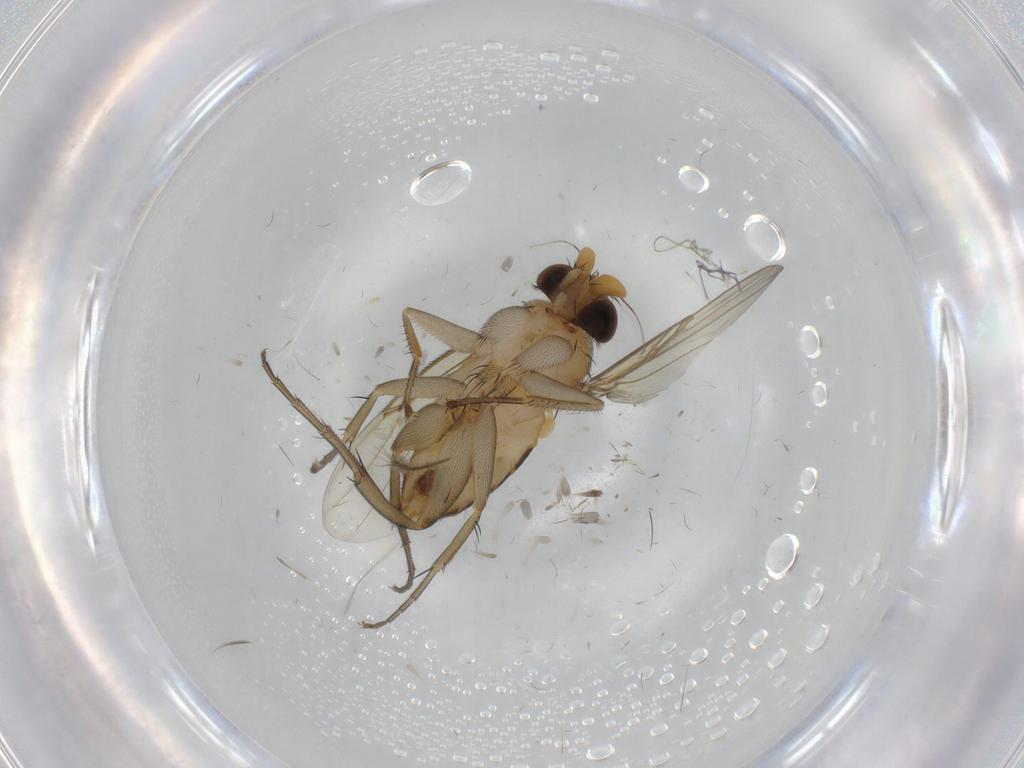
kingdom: Animalia
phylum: Arthropoda
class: Insecta
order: Diptera
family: Phoridae
